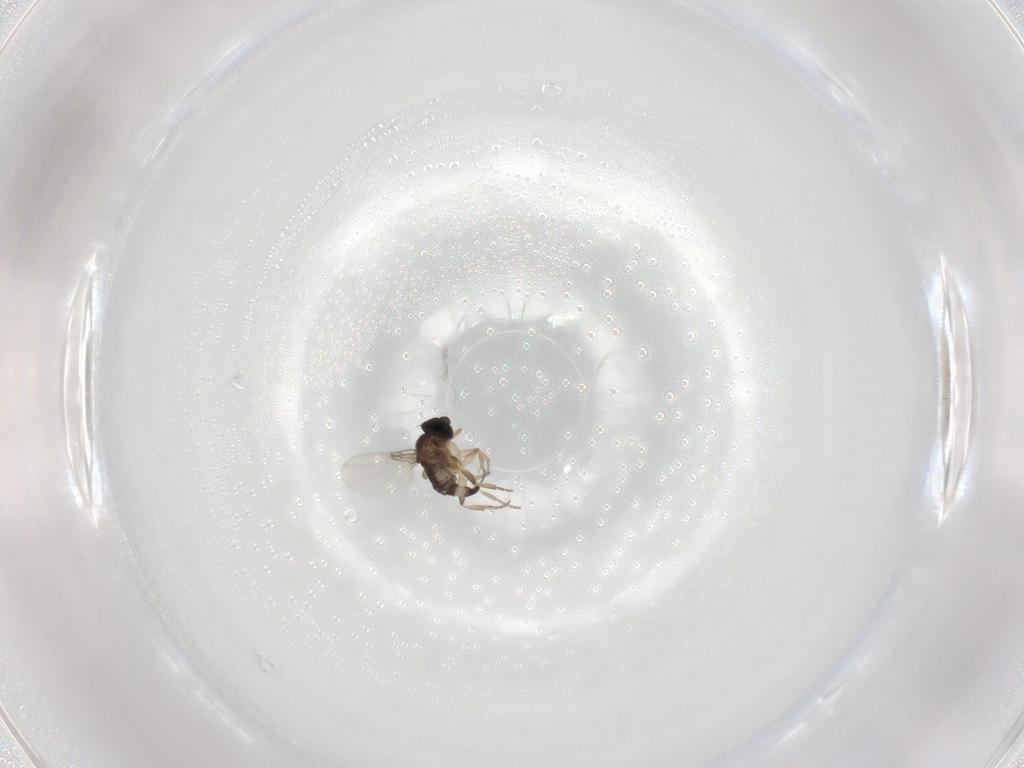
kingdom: Animalia
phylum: Arthropoda
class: Insecta
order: Diptera
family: Phoridae
